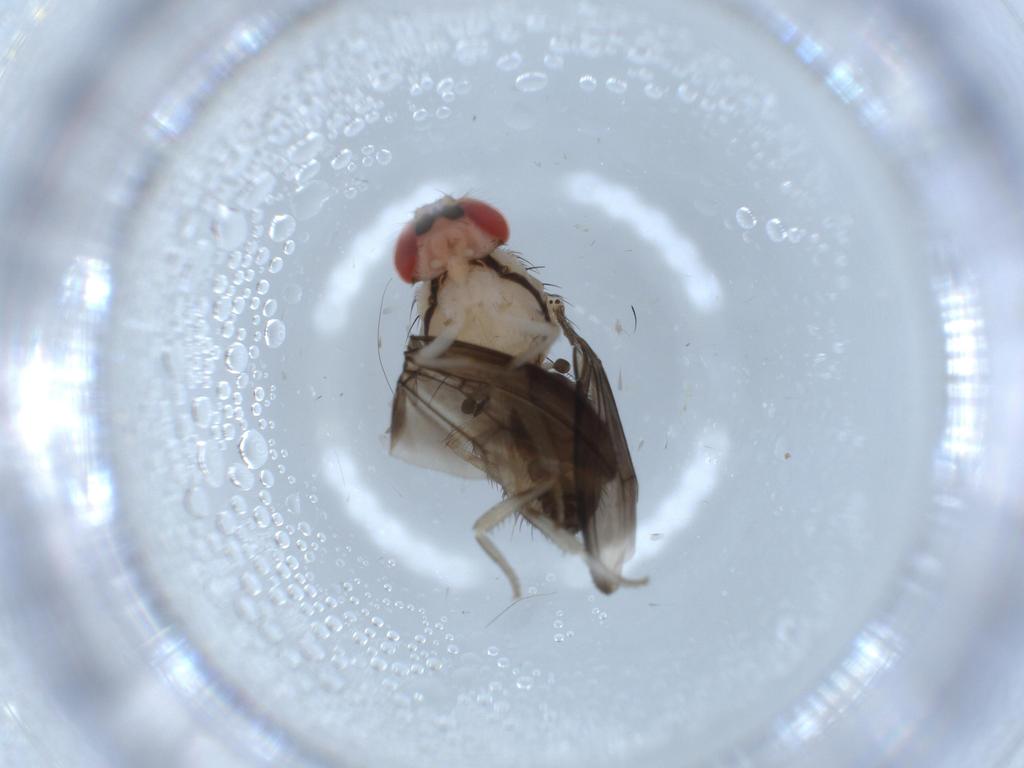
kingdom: Animalia
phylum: Arthropoda
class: Insecta
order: Diptera
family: Drosophilidae
